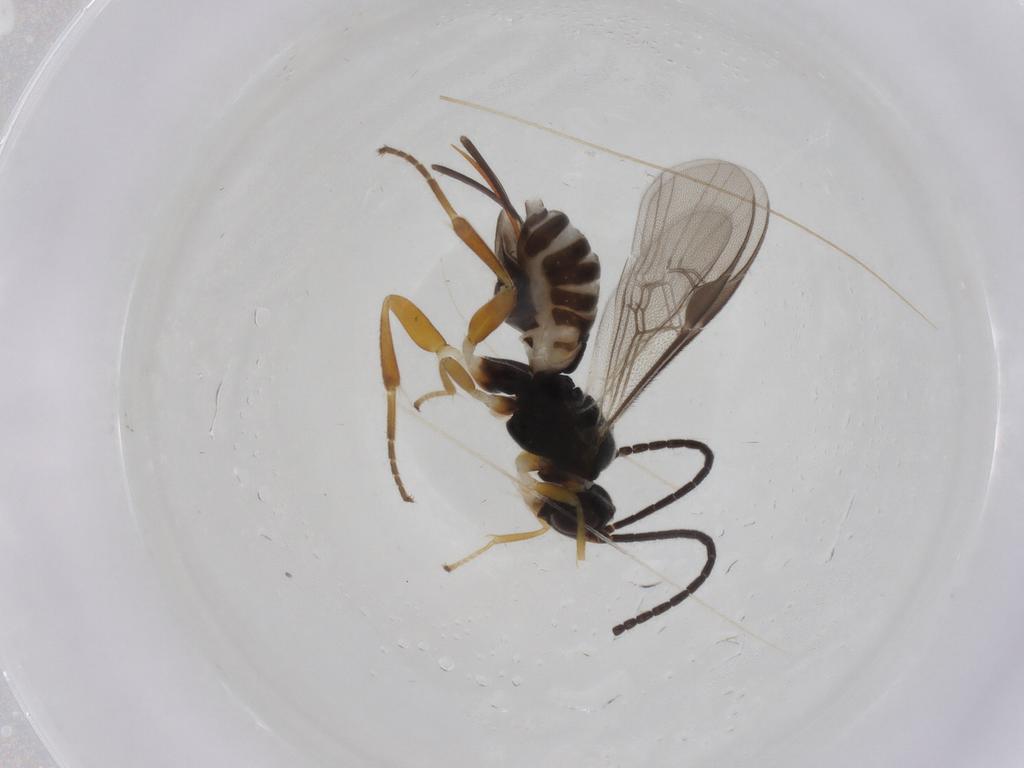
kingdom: Animalia
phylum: Arthropoda
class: Insecta
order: Hymenoptera
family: Braconidae
